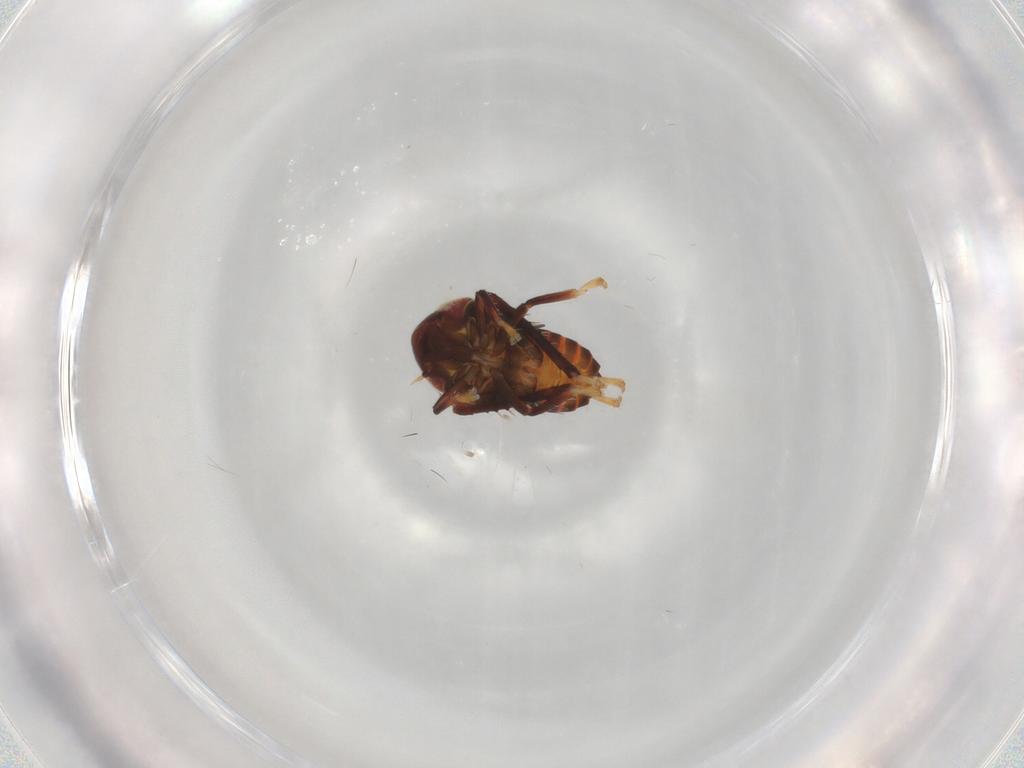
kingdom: Animalia
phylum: Arthropoda
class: Insecta
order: Hemiptera
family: Cicadellidae
